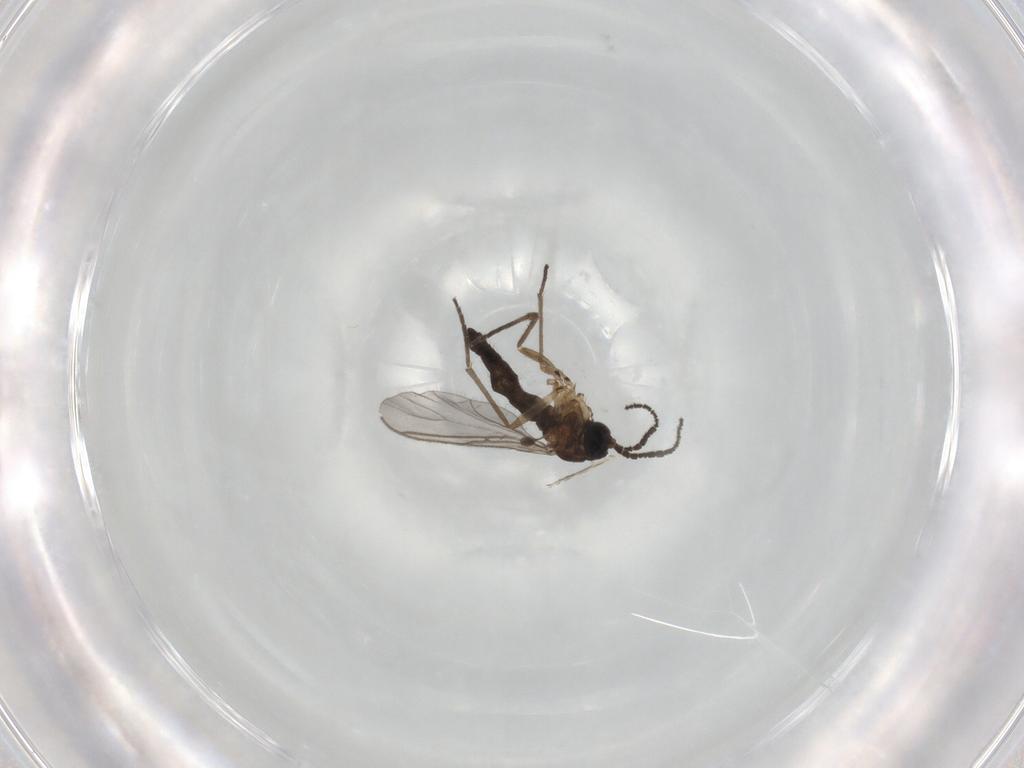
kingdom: Animalia
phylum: Arthropoda
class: Insecta
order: Diptera
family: Sciaridae
